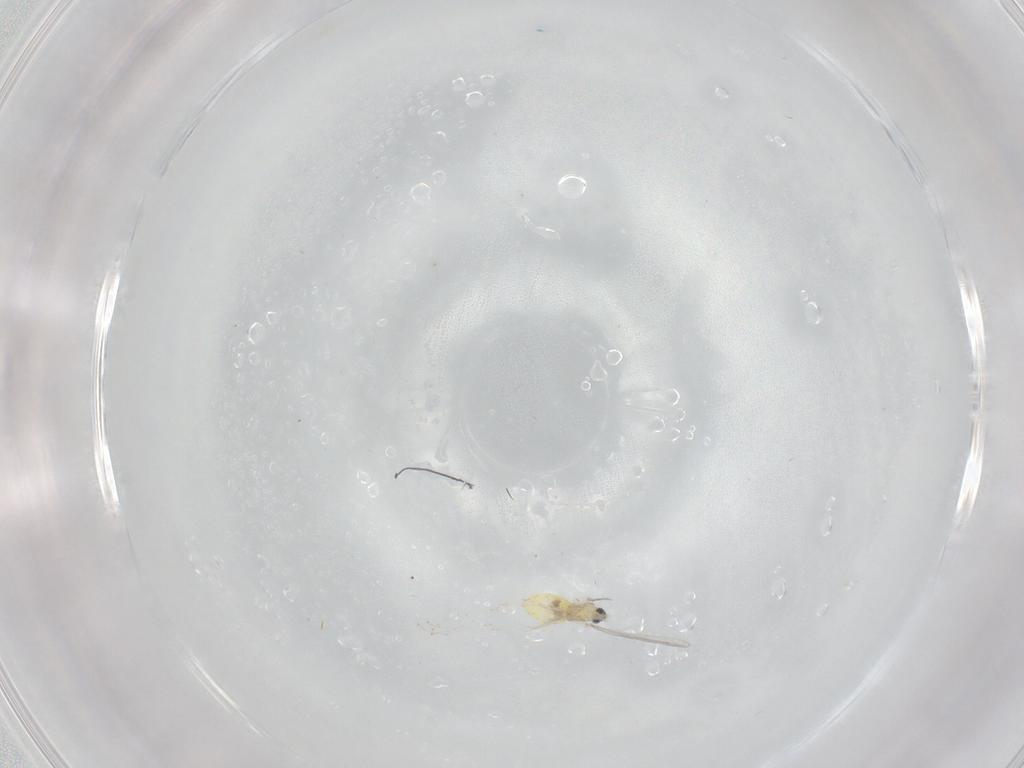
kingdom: Animalia
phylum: Arthropoda
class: Insecta
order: Diptera
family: Cecidomyiidae
